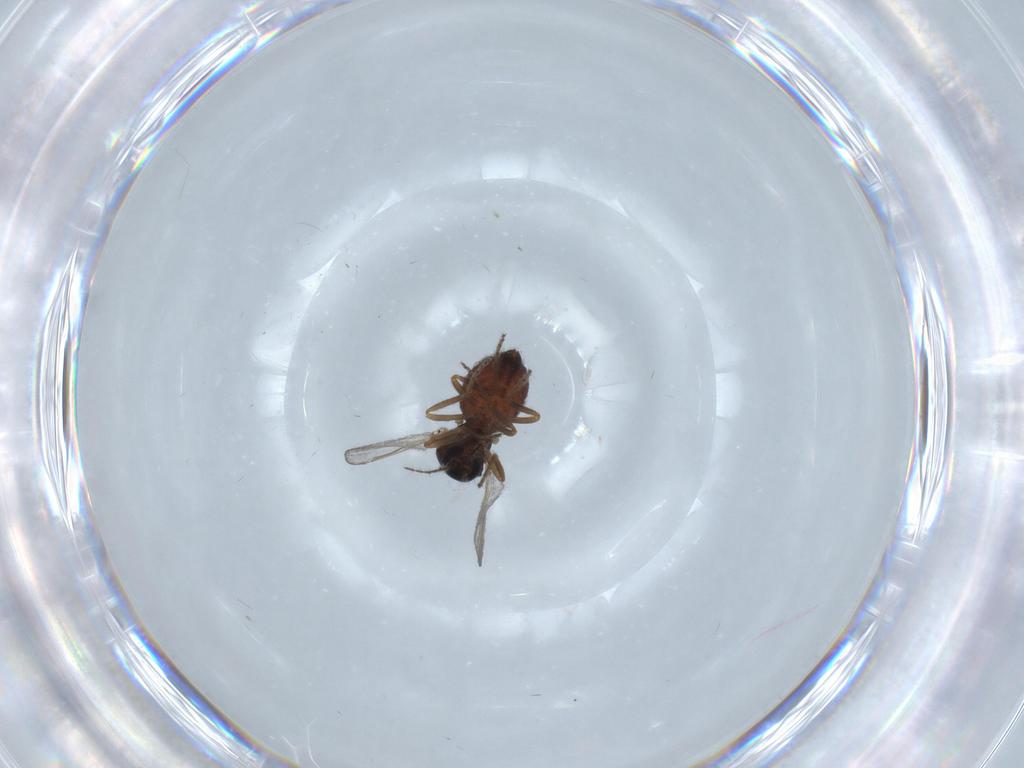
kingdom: Animalia
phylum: Arthropoda
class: Insecta
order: Diptera
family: Ceratopogonidae
